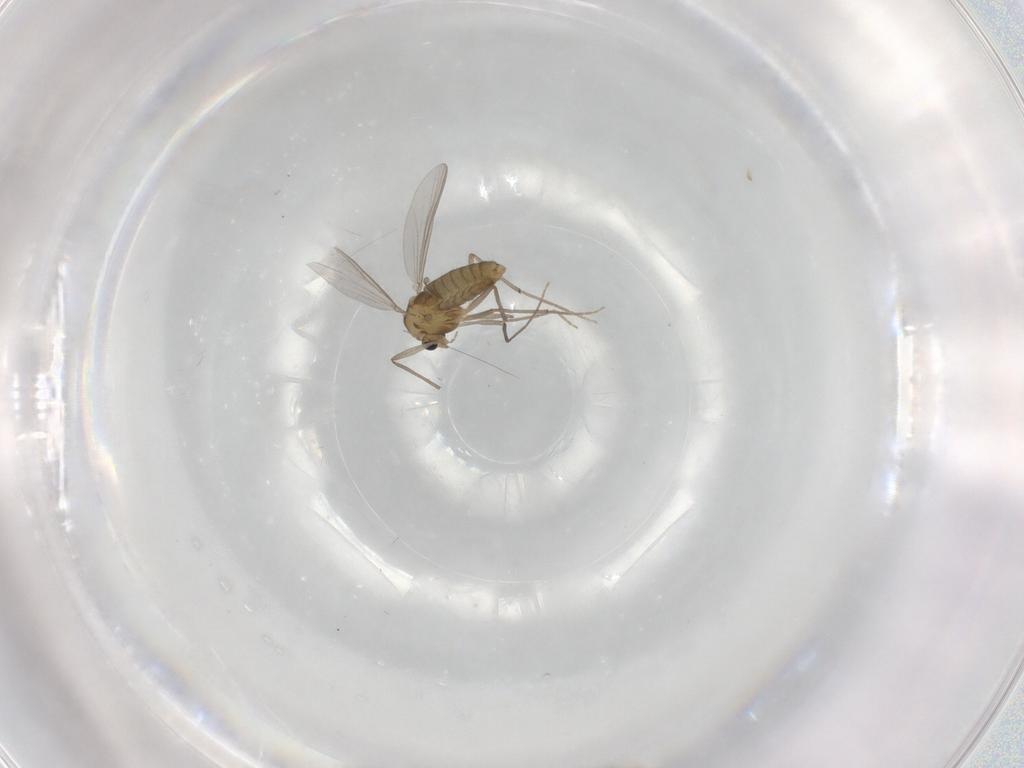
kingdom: Animalia
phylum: Arthropoda
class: Insecta
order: Diptera
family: Chironomidae
